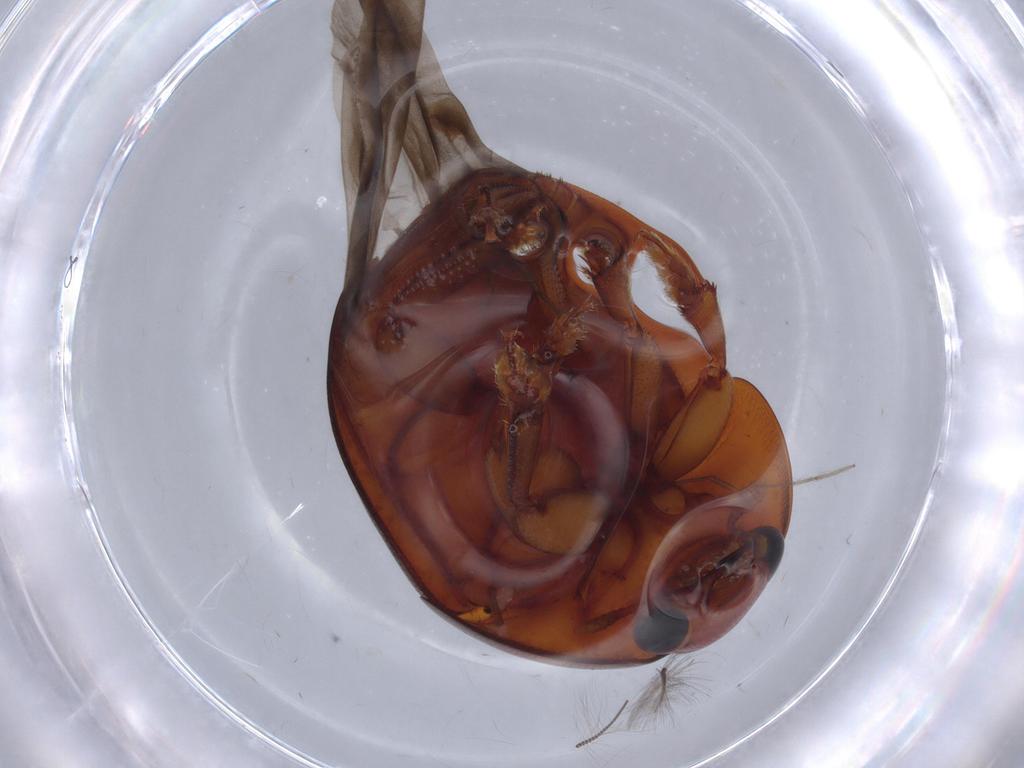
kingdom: Animalia
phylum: Arthropoda
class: Insecta
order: Coleoptera
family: Nitidulidae
